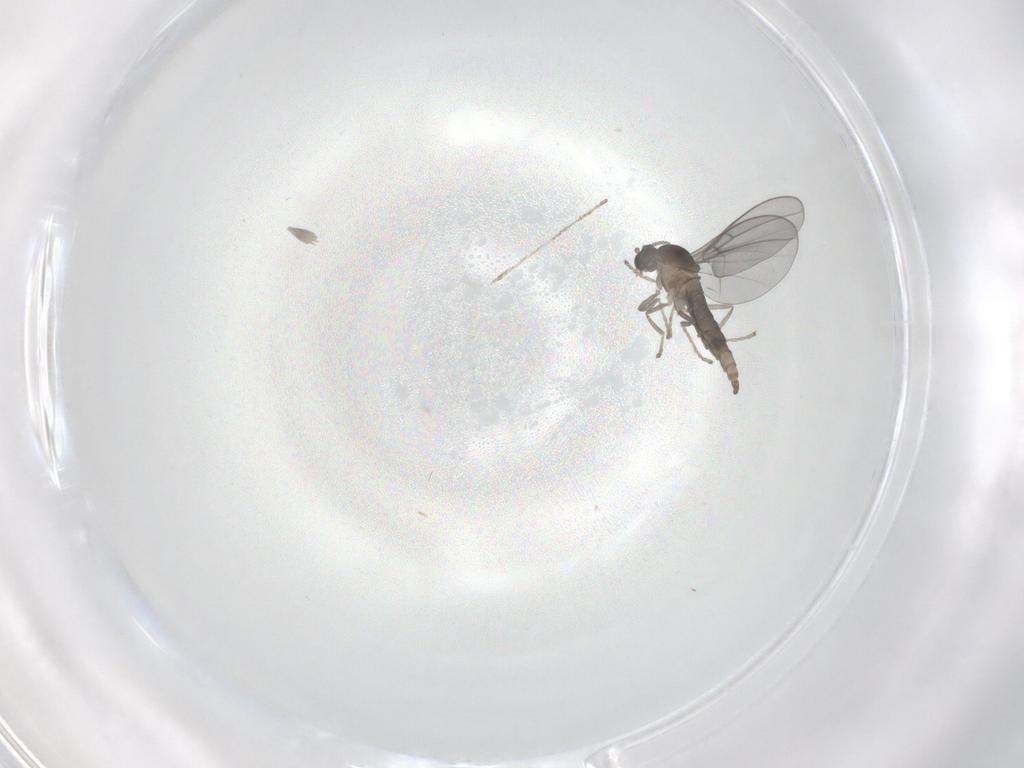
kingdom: Animalia
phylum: Arthropoda
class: Insecta
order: Diptera
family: Cecidomyiidae
